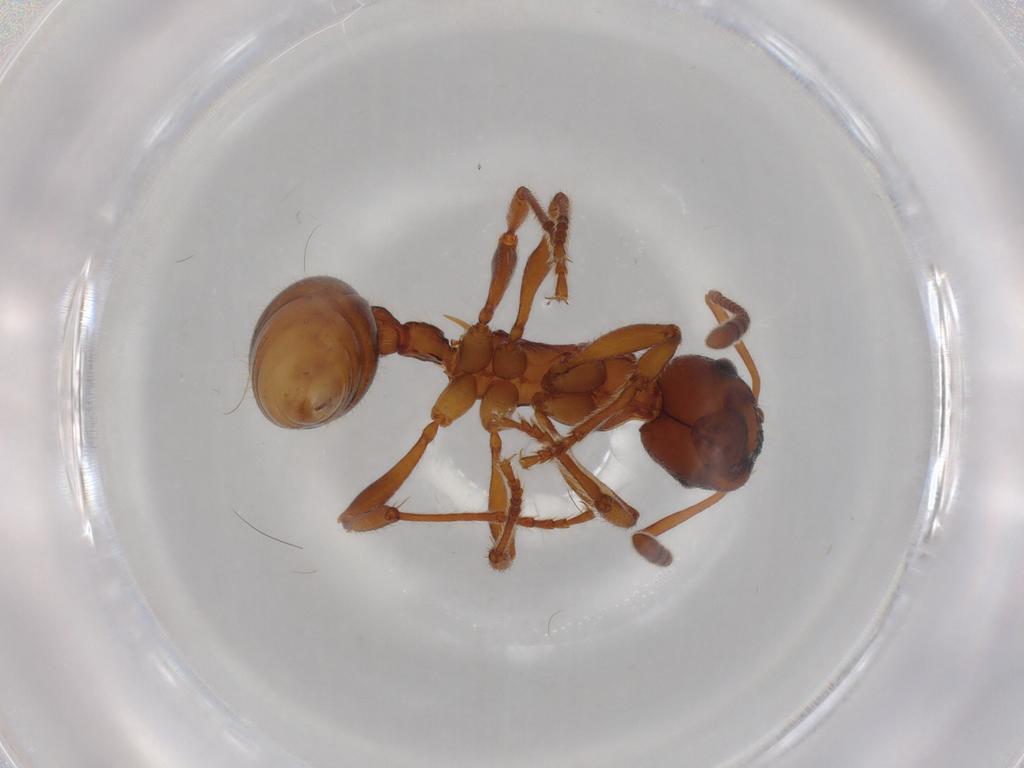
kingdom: Animalia
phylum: Arthropoda
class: Insecta
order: Hymenoptera
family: Formicidae
